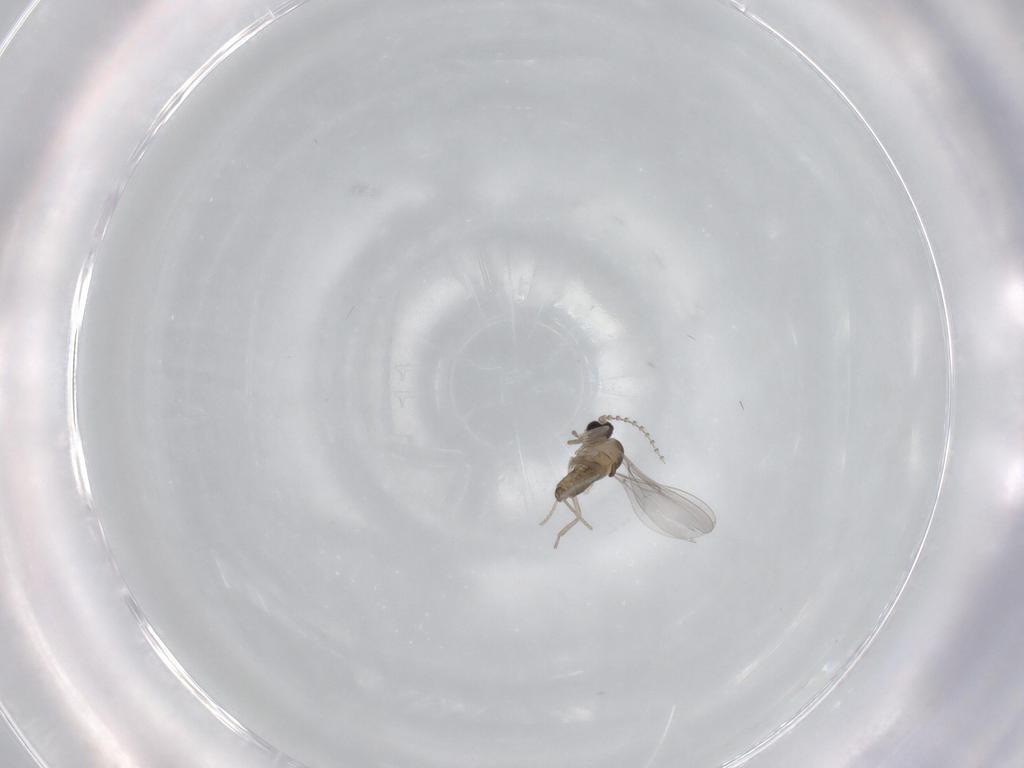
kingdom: Animalia
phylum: Arthropoda
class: Insecta
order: Diptera
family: Cecidomyiidae
